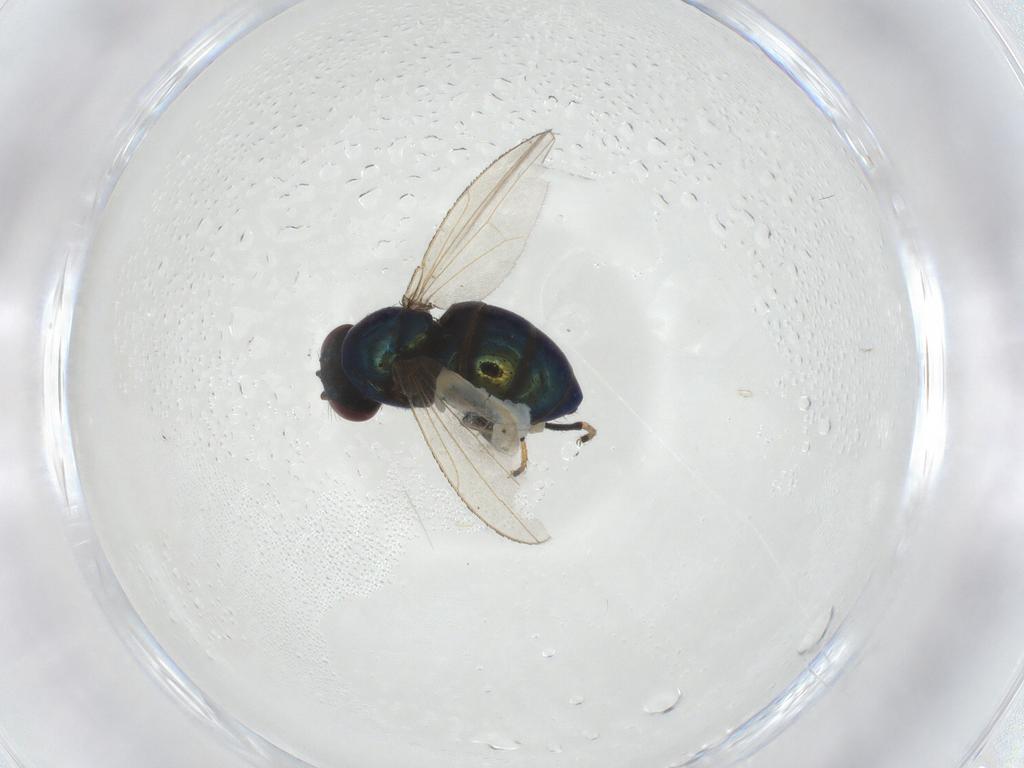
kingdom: Animalia
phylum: Arthropoda
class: Insecta
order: Diptera
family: Ephydridae
